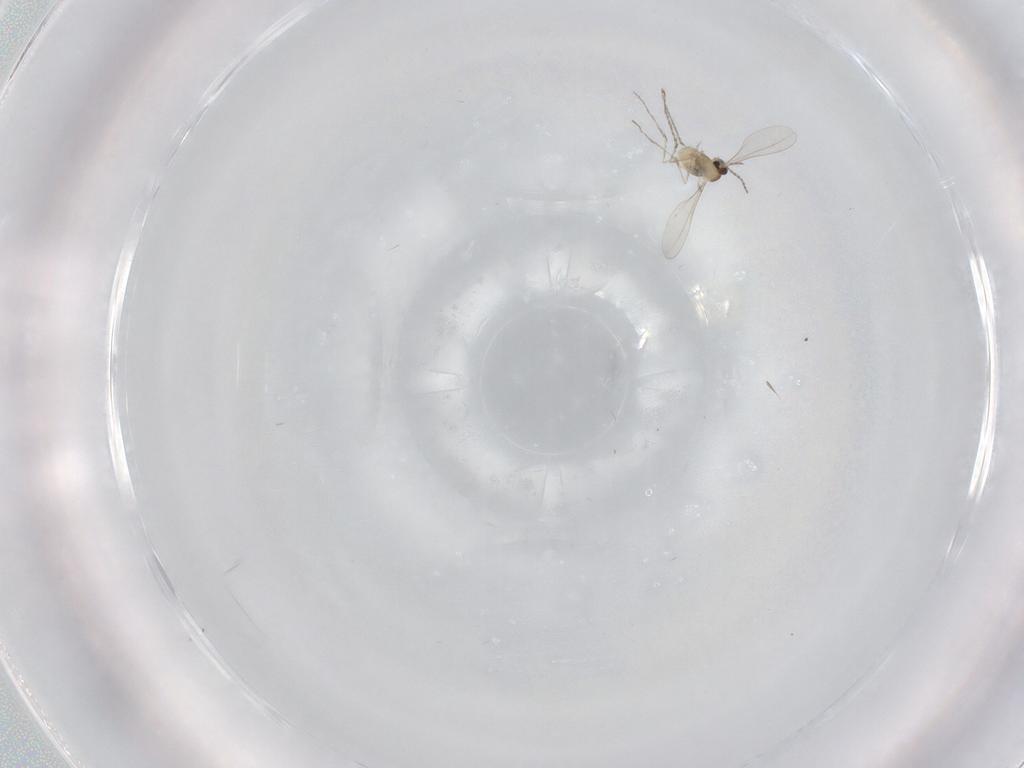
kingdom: Animalia
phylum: Arthropoda
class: Insecta
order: Diptera
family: Cecidomyiidae
